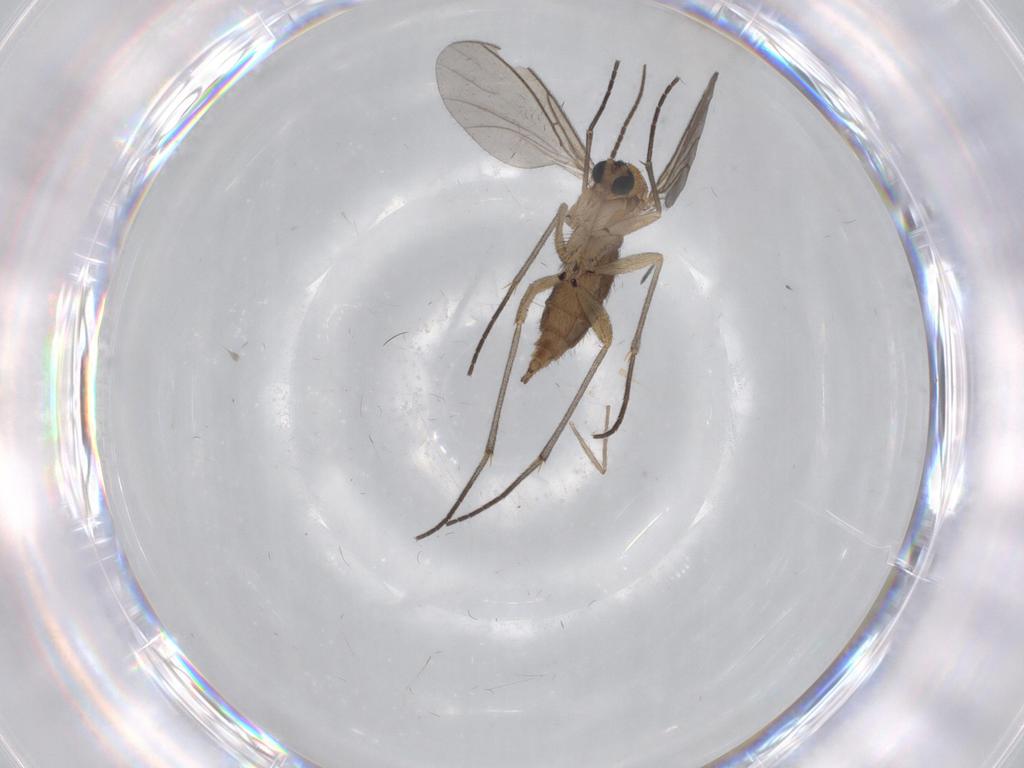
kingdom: Animalia
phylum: Arthropoda
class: Insecta
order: Diptera
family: Sciaridae
